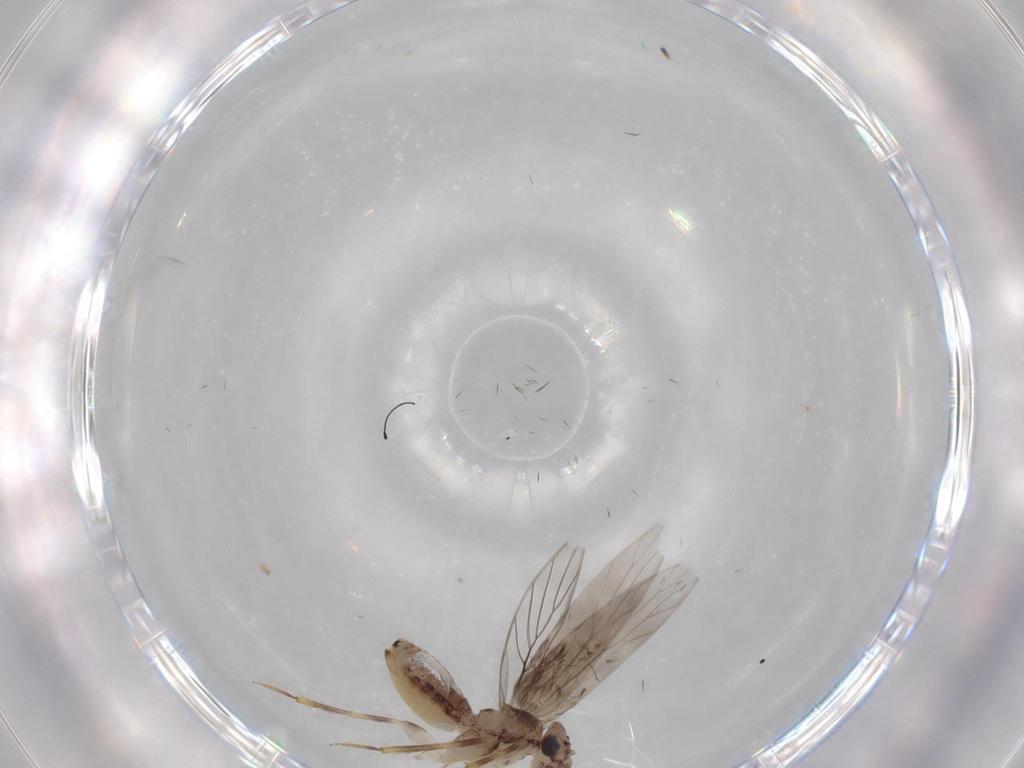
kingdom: Animalia
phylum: Arthropoda
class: Insecta
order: Psocodea
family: Lepidopsocidae
